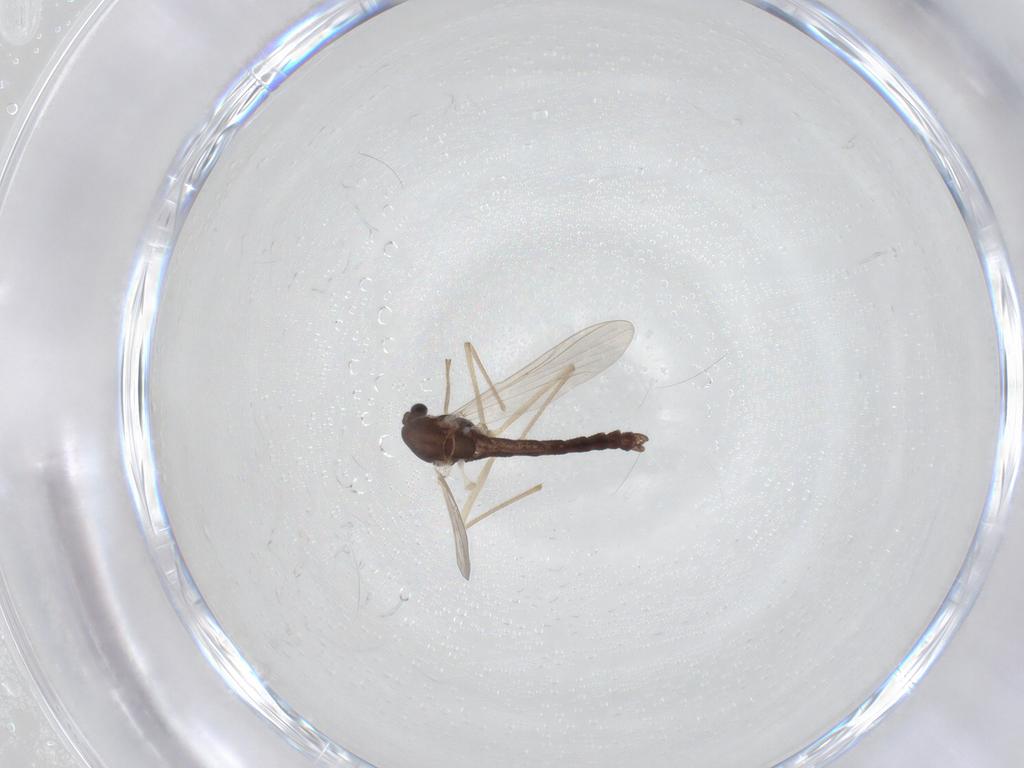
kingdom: Animalia
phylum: Arthropoda
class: Insecta
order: Diptera
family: Chironomidae
